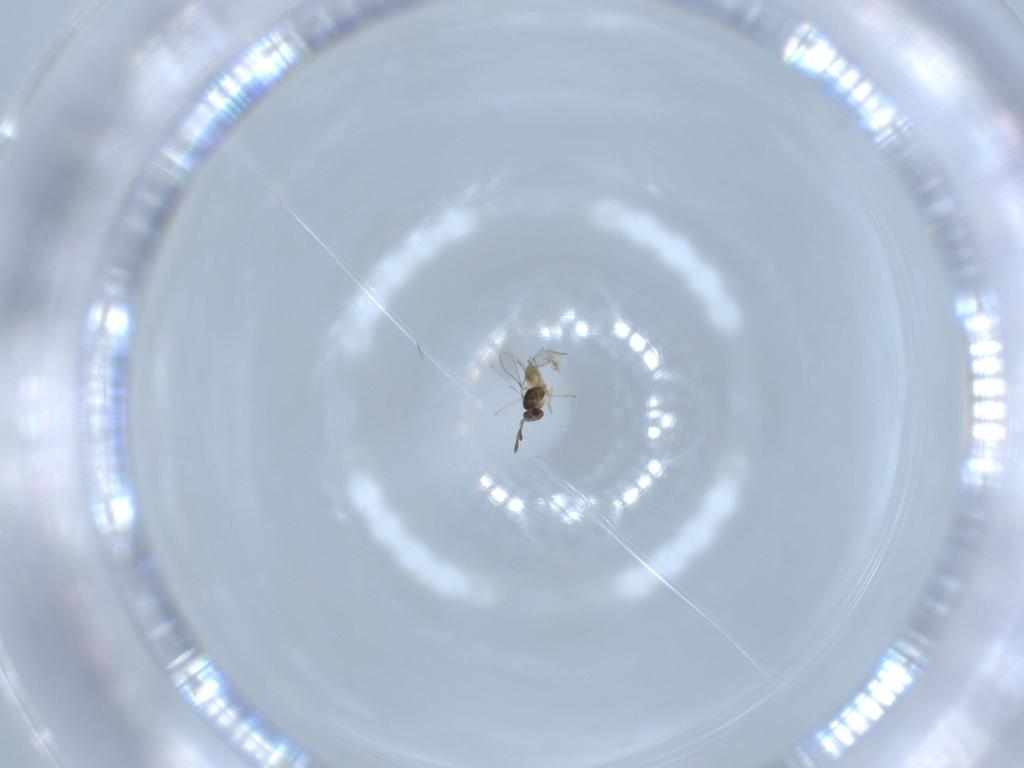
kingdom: Animalia
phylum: Arthropoda
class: Insecta
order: Hymenoptera
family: Mymaridae
